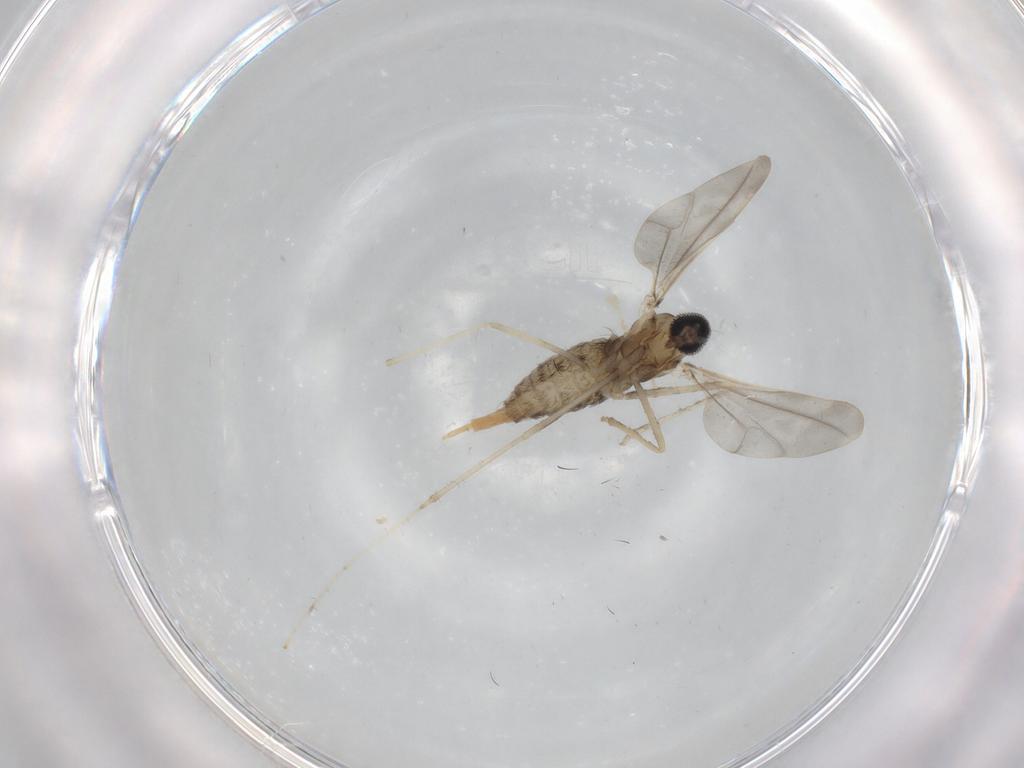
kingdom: Animalia
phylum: Arthropoda
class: Insecta
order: Diptera
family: Cecidomyiidae
